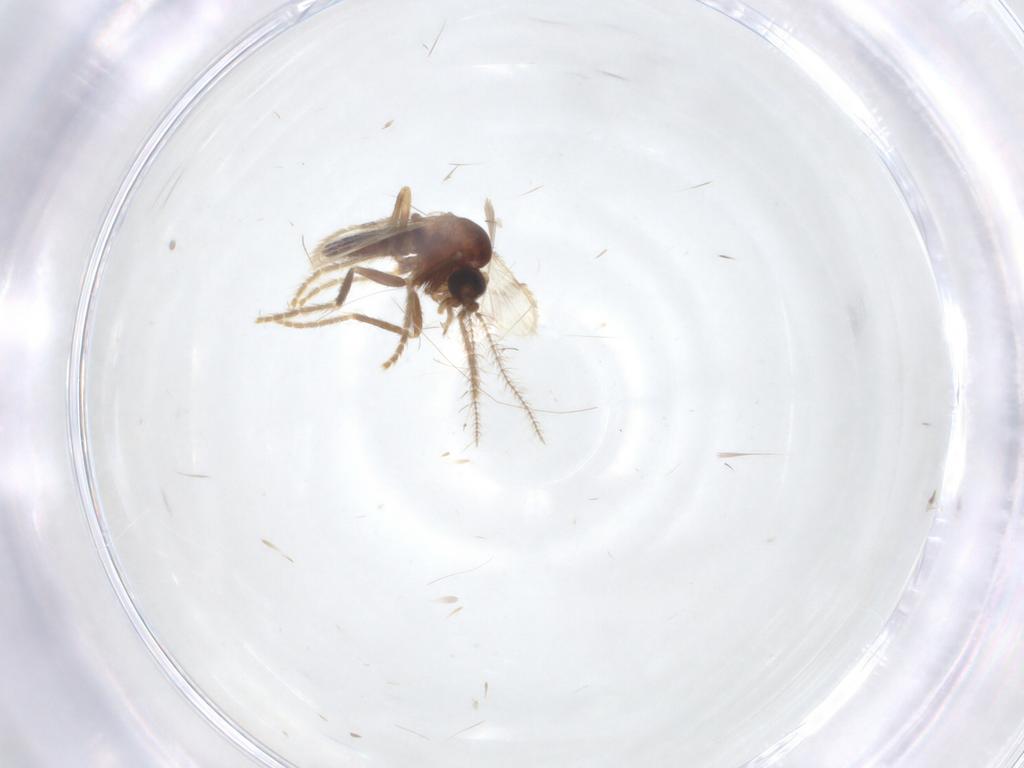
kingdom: Animalia
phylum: Arthropoda
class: Insecta
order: Diptera
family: Corethrellidae
